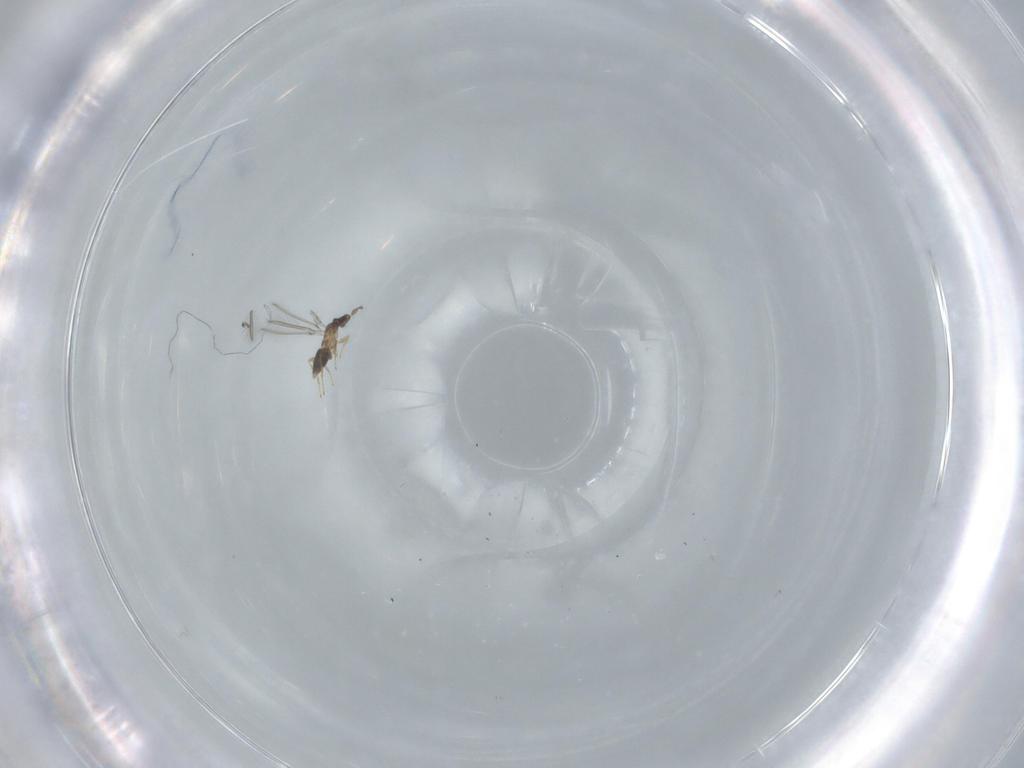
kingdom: Animalia
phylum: Arthropoda
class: Insecta
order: Hymenoptera
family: Mymaridae
